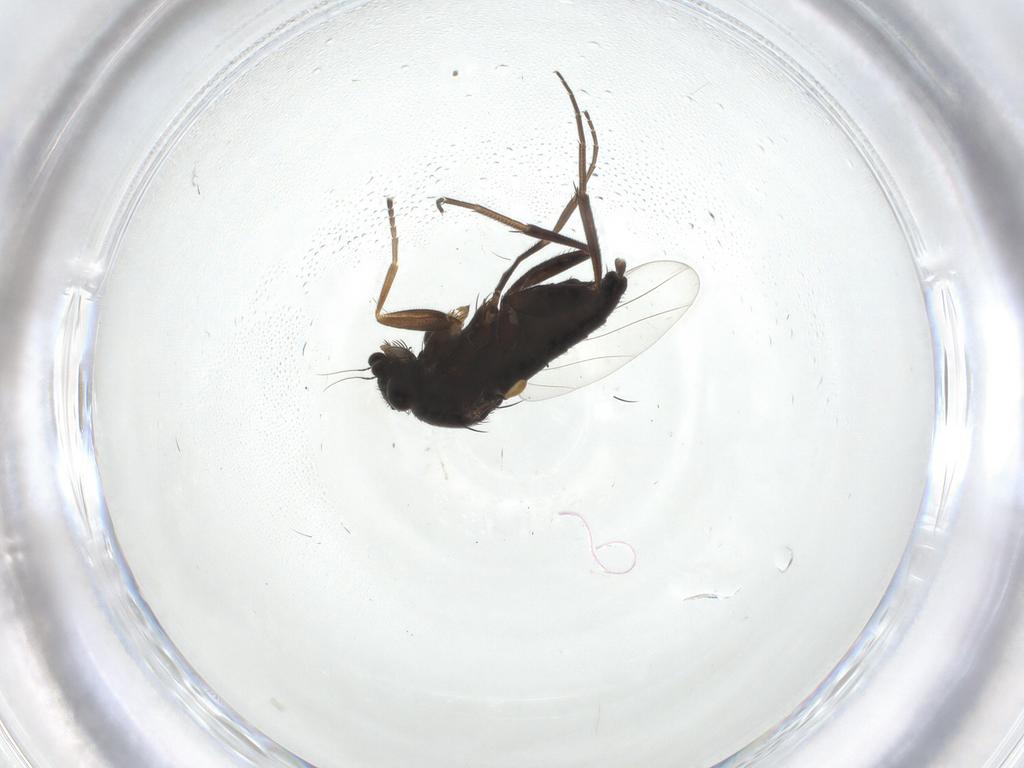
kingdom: Animalia
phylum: Arthropoda
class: Insecta
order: Diptera
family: Phoridae
